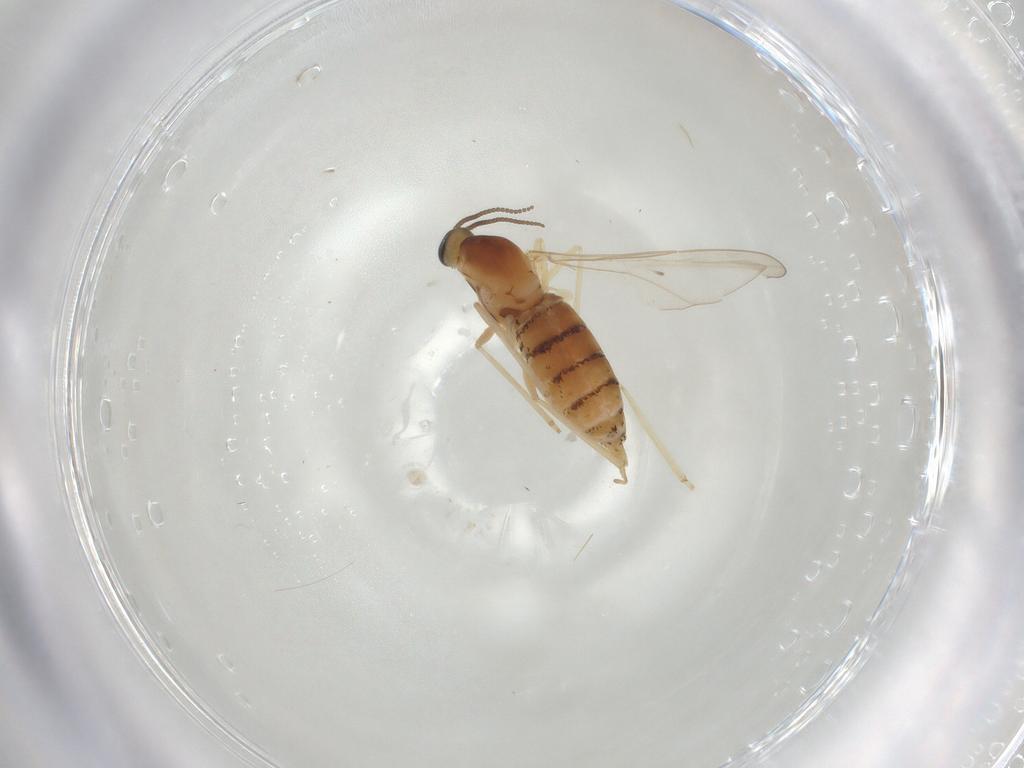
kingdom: Animalia
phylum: Arthropoda
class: Insecta
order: Diptera
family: Cecidomyiidae
